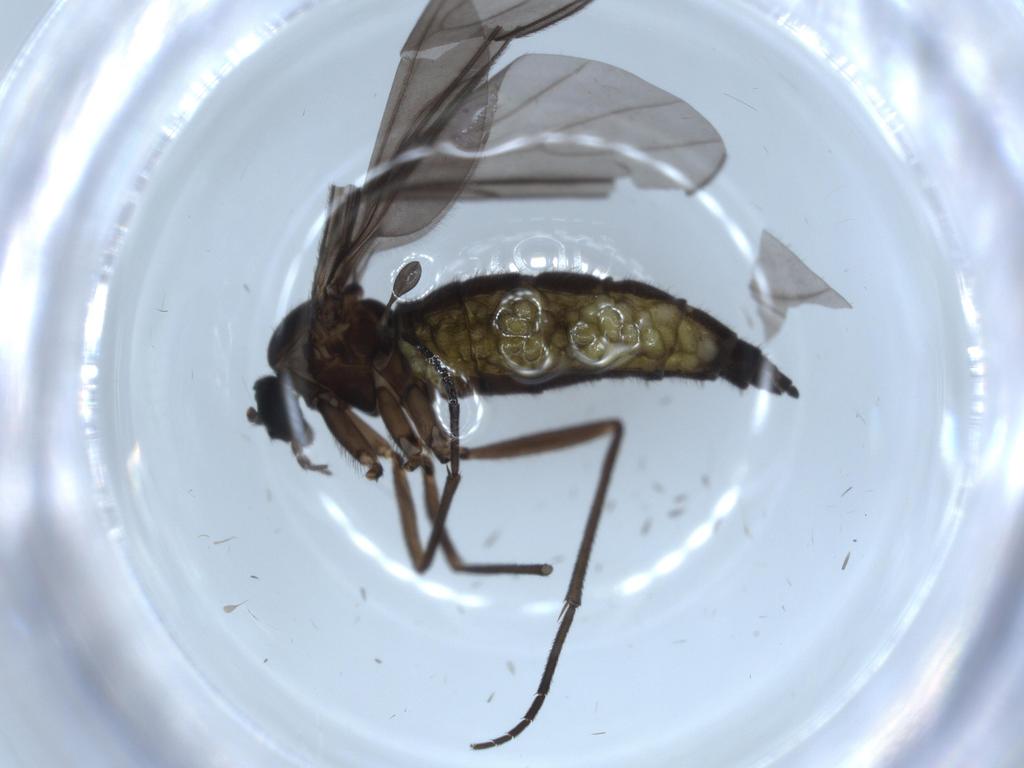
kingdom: Animalia
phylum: Arthropoda
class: Insecta
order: Diptera
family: Sciaridae
